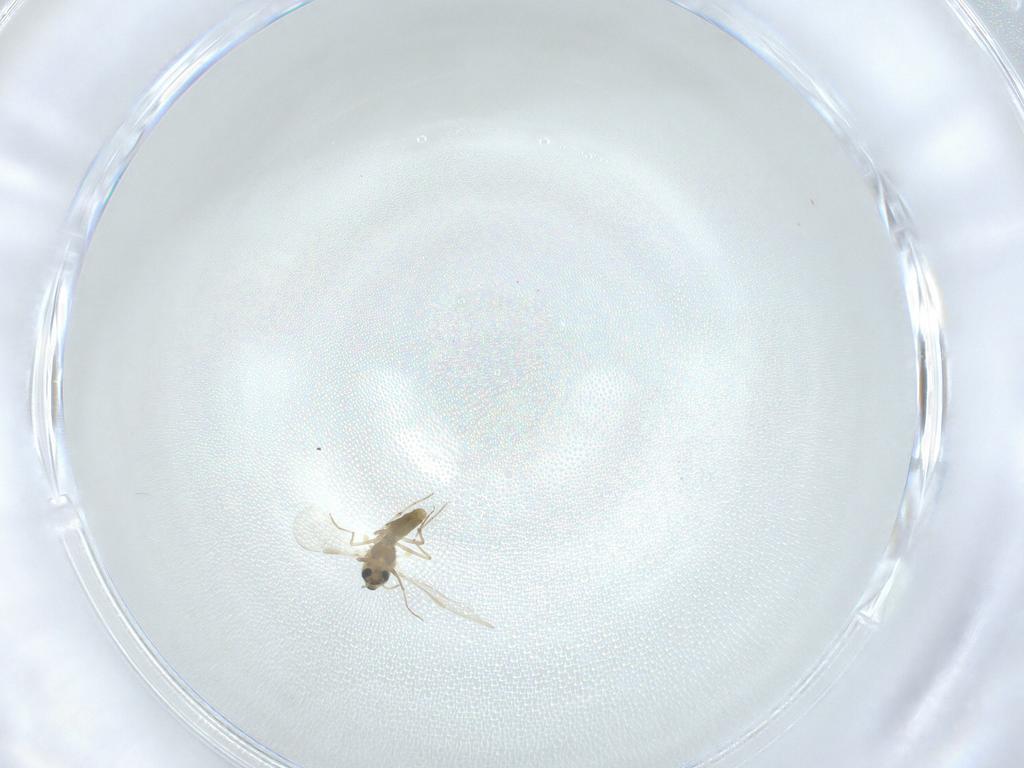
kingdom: Animalia
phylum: Arthropoda
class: Insecta
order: Diptera
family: Chironomidae
